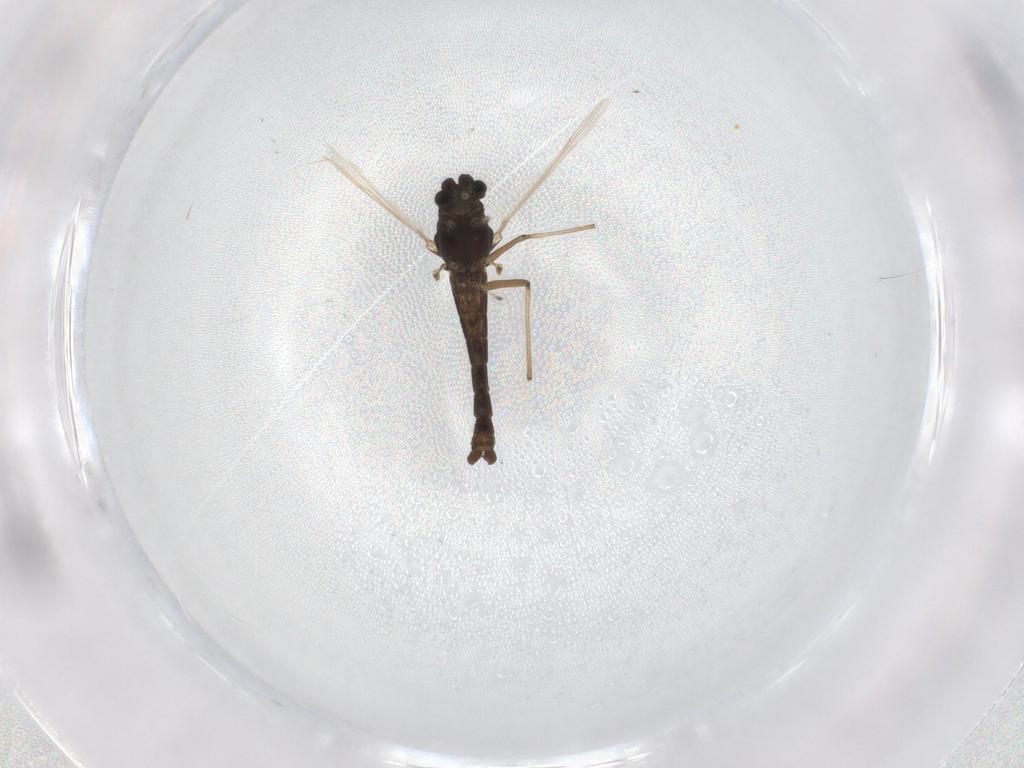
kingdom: Animalia
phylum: Arthropoda
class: Insecta
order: Diptera
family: Chironomidae
